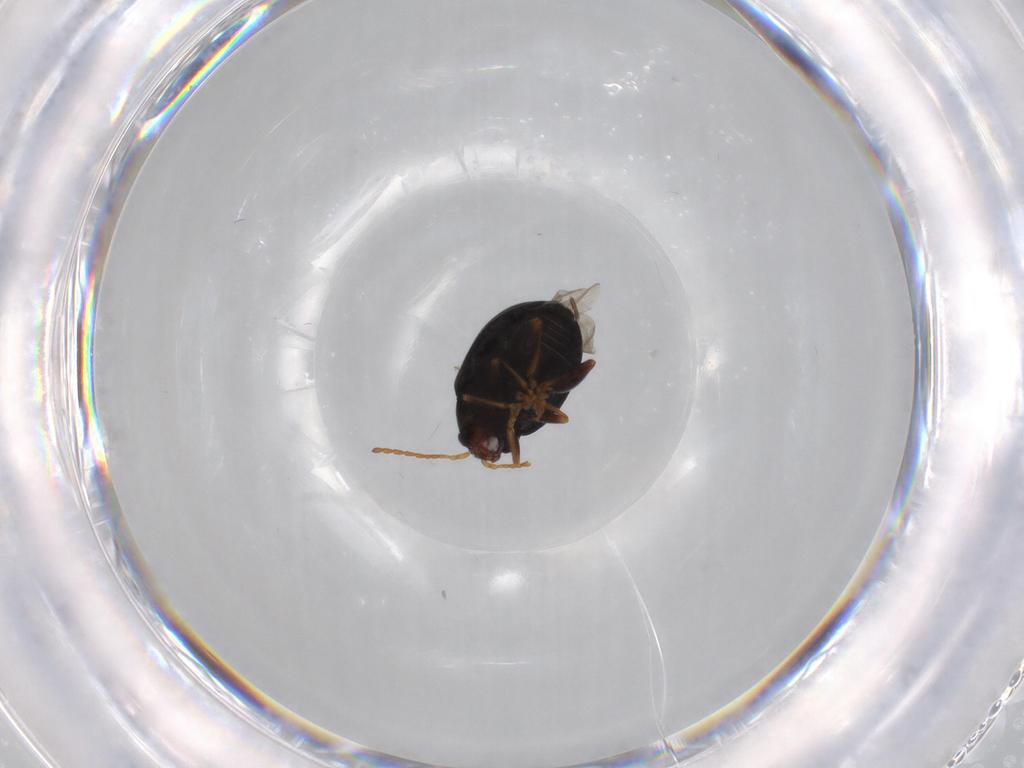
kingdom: Animalia
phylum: Arthropoda
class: Insecta
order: Coleoptera
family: Chrysomelidae
